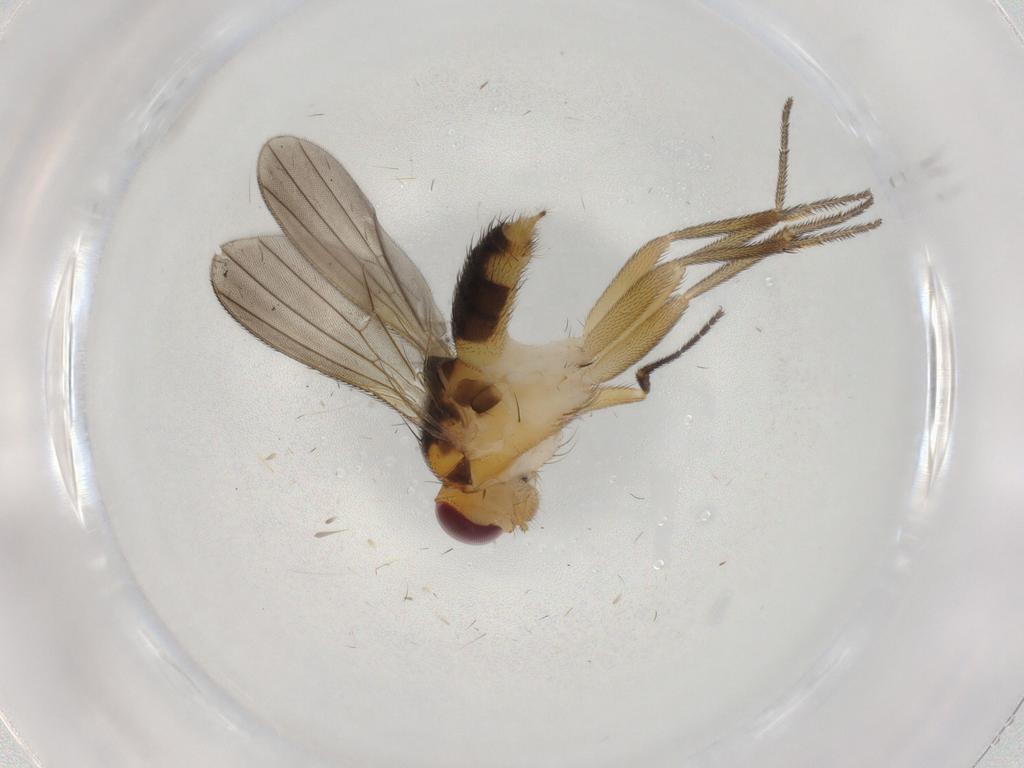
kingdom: Animalia
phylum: Arthropoda
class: Insecta
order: Diptera
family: Clusiidae
